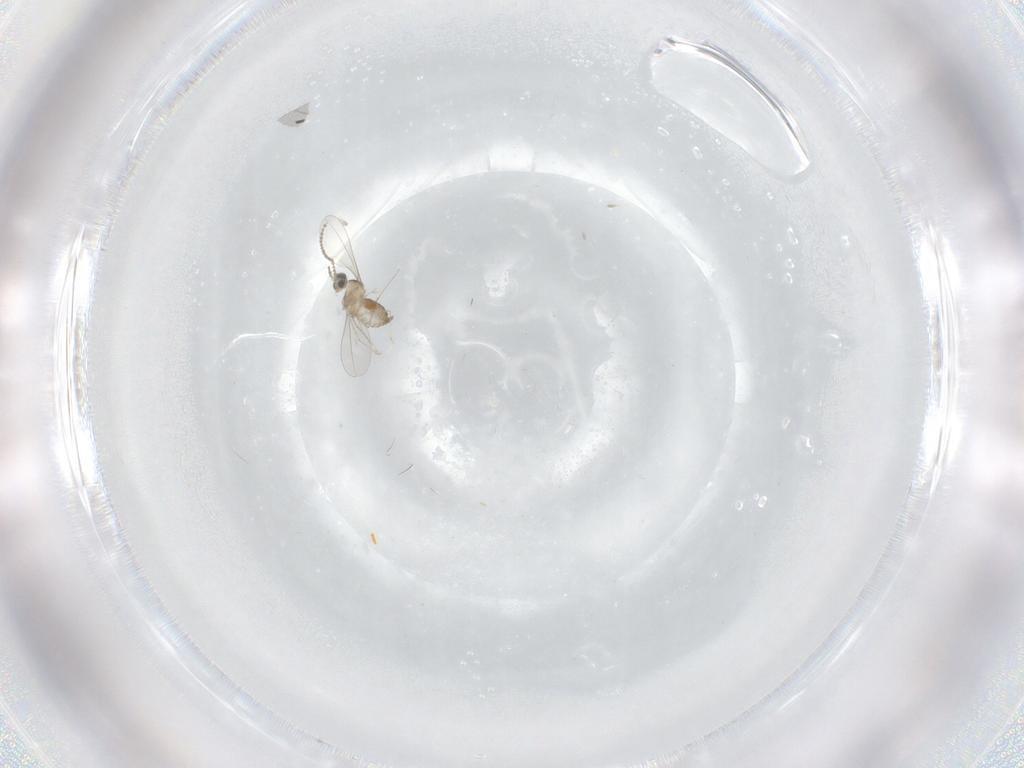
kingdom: Animalia
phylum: Arthropoda
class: Insecta
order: Diptera
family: Cecidomyiidae
